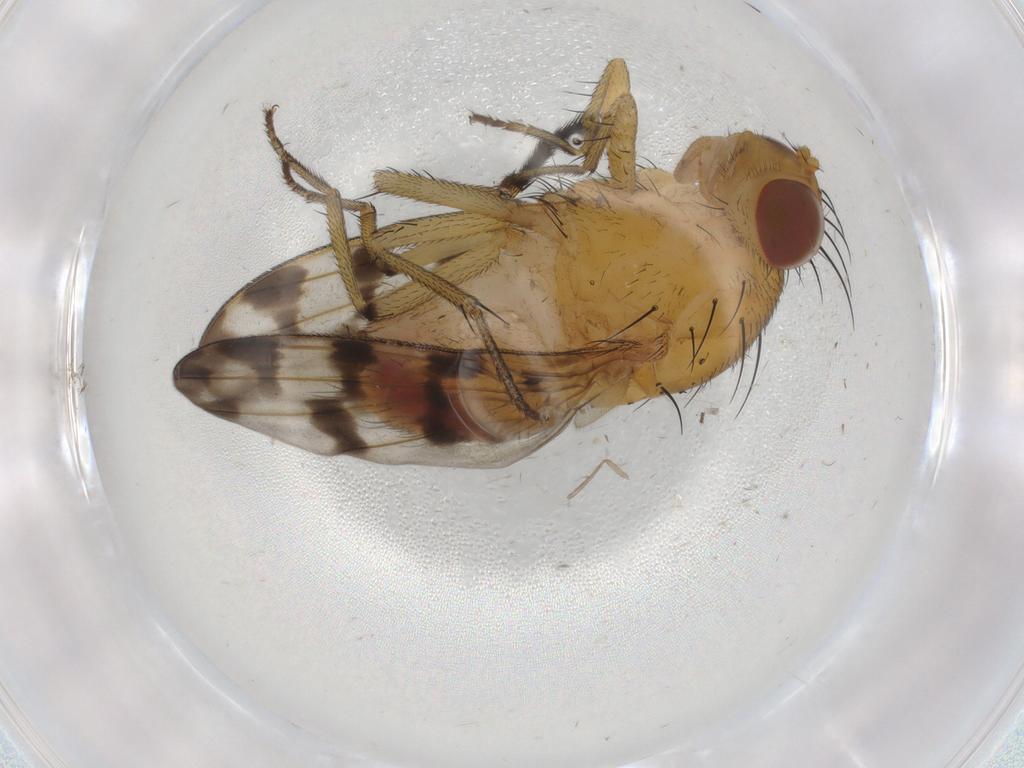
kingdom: Animalia
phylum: Arthropoda
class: Insecta
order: Diptera
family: Psychodidae
